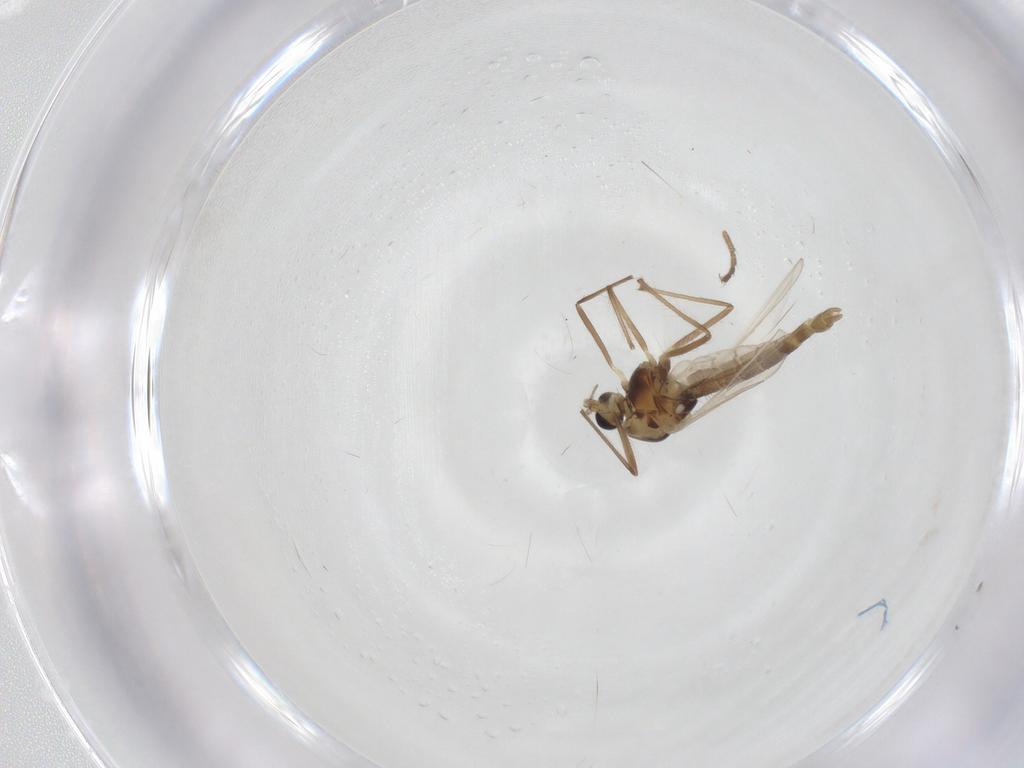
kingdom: Animalia
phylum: Arthropoda
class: Insecta
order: Diptera
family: Chironomidae
